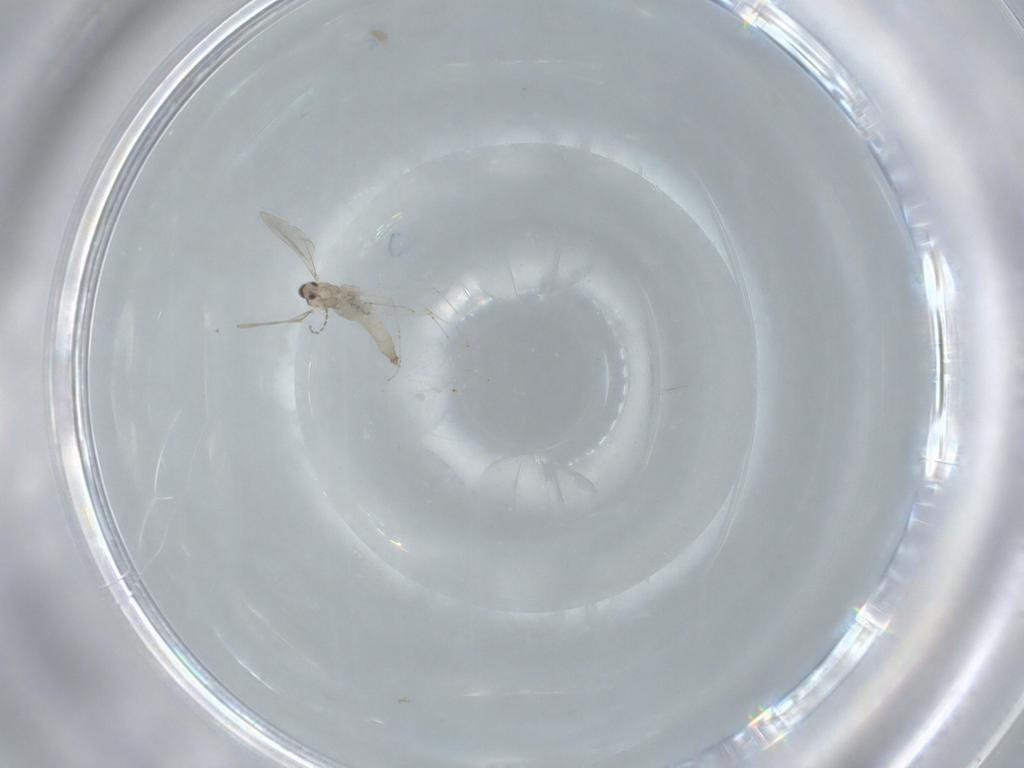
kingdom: Animalia
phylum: Arthropoda
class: Insecta
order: Diptera
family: Cecidomyiidae
